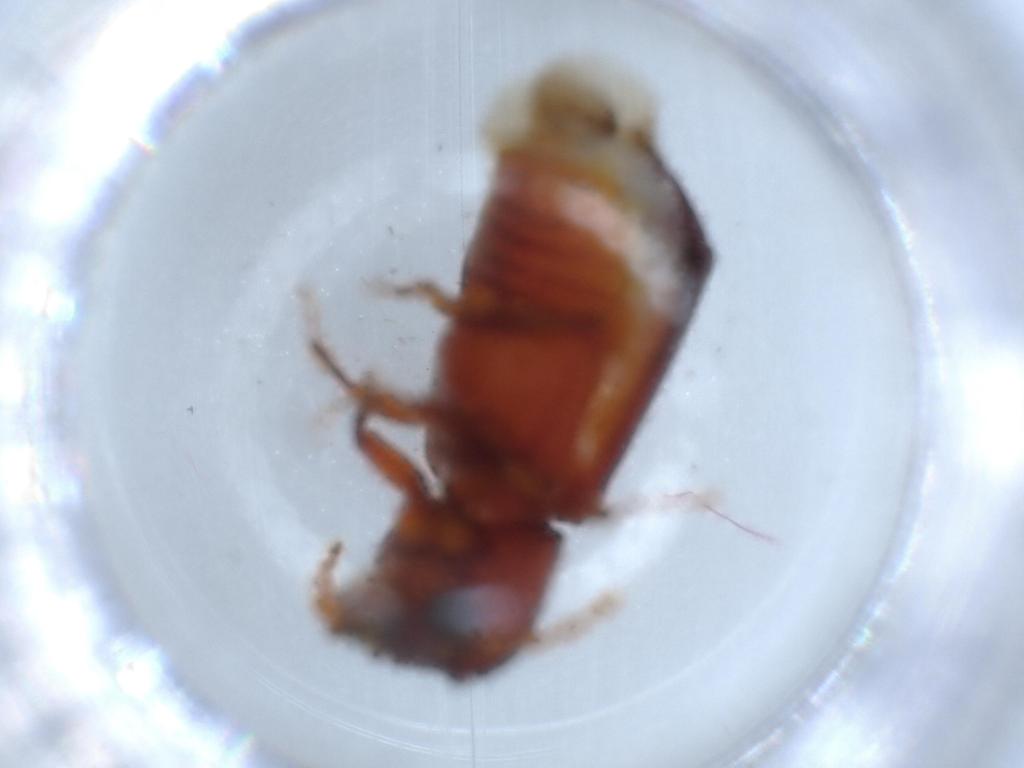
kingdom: Animalia
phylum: Arthropoda
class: Insecta
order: Coleoptera
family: Bostrichidae
